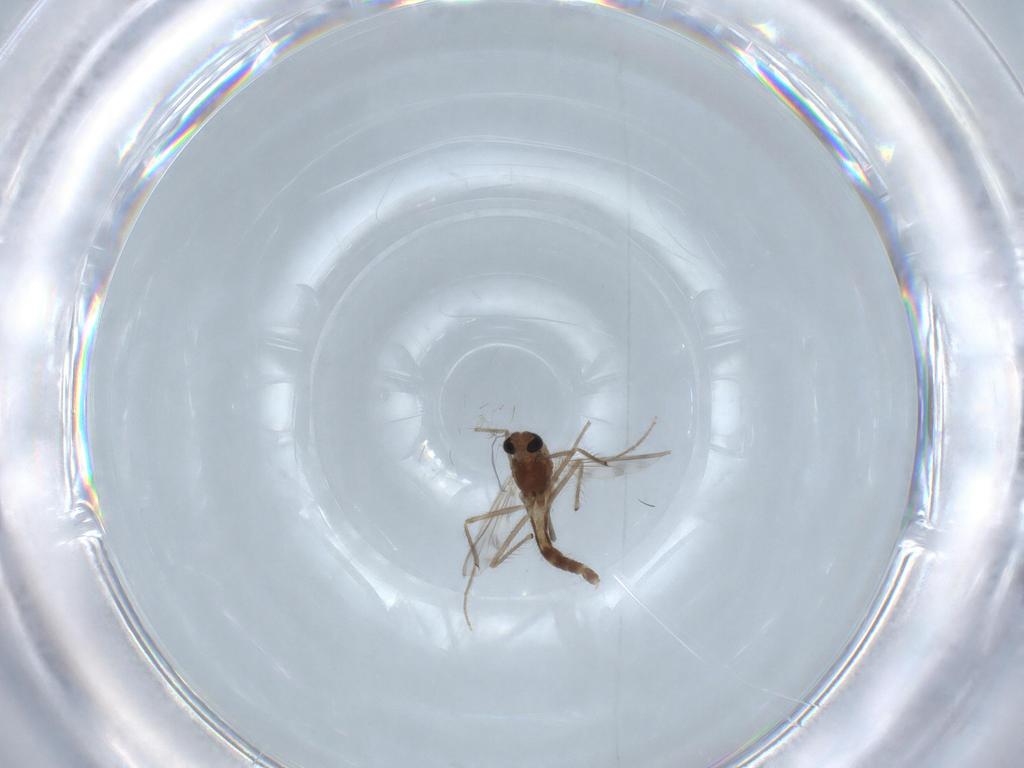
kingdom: Animalia
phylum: Arthropoda
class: Insecta
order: Diptera
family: Chironomidae
